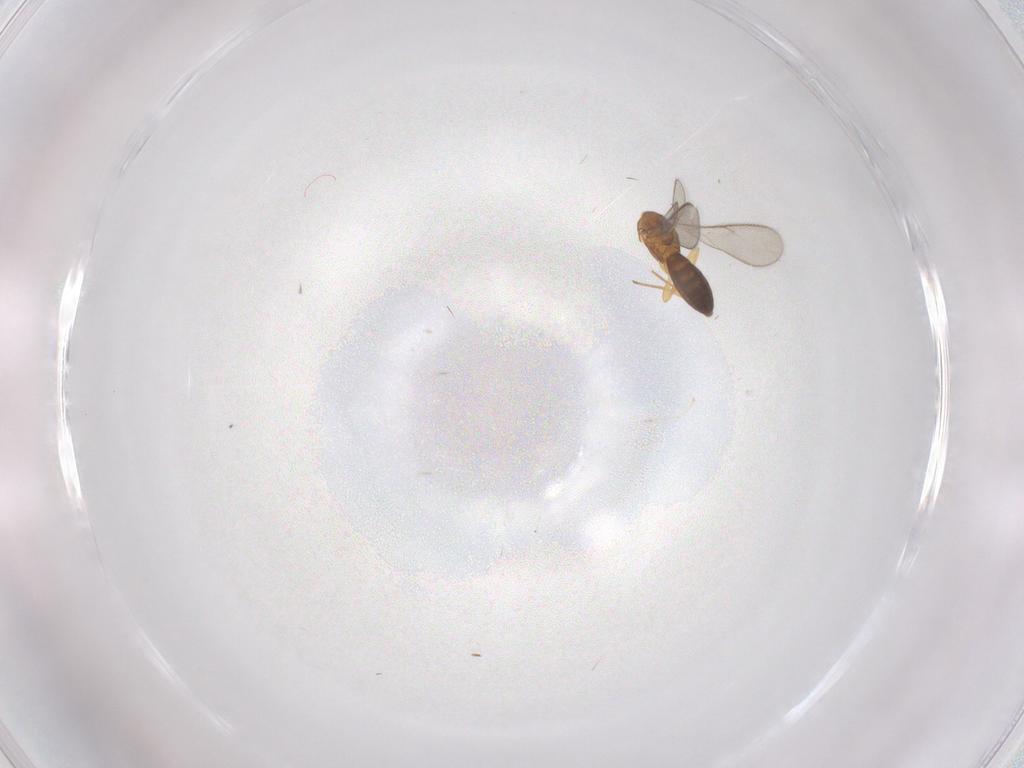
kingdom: Animalia
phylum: Arthropoda
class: Insecta
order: Hymenoptera
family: Scelionidae
